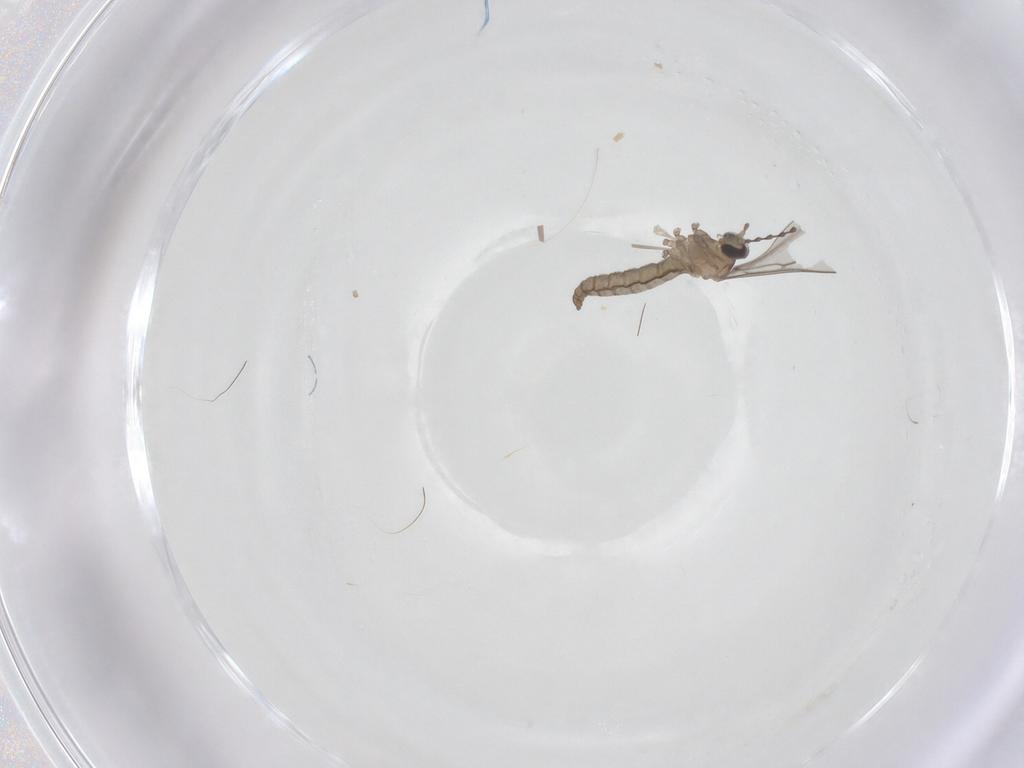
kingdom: Animalia
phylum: Arthropoda
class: Insecta
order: Diptera
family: Cecidomyiidae
